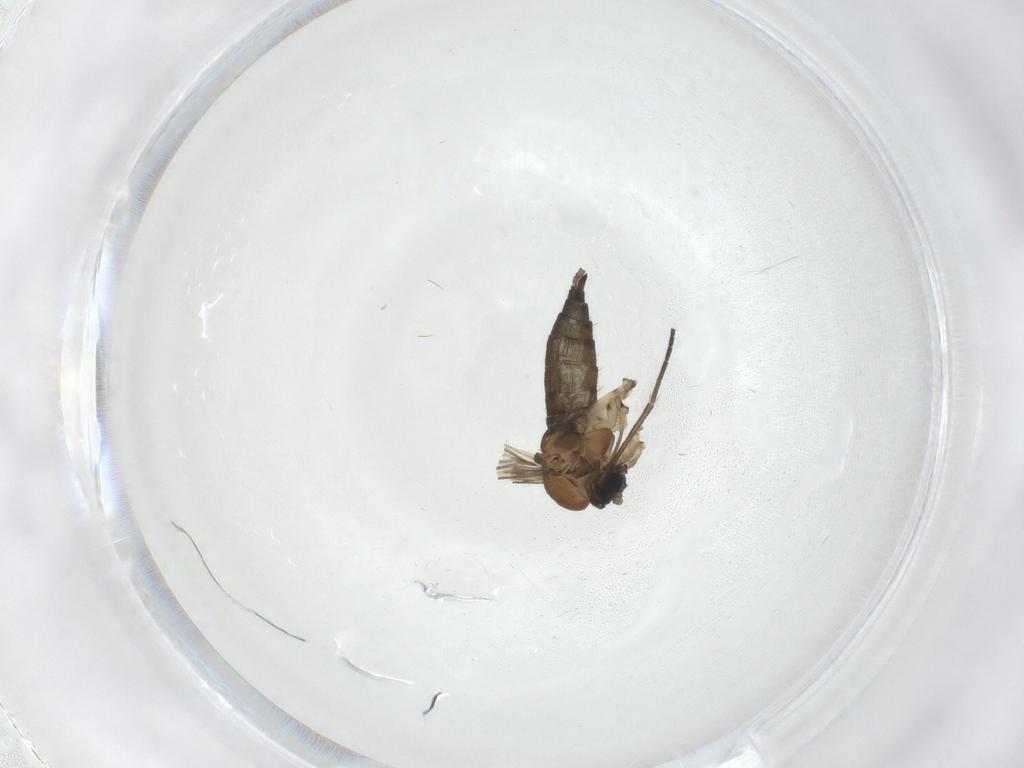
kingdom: Animalia
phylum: Arthropoda
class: Insecta
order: Diptera
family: Sciaridae
